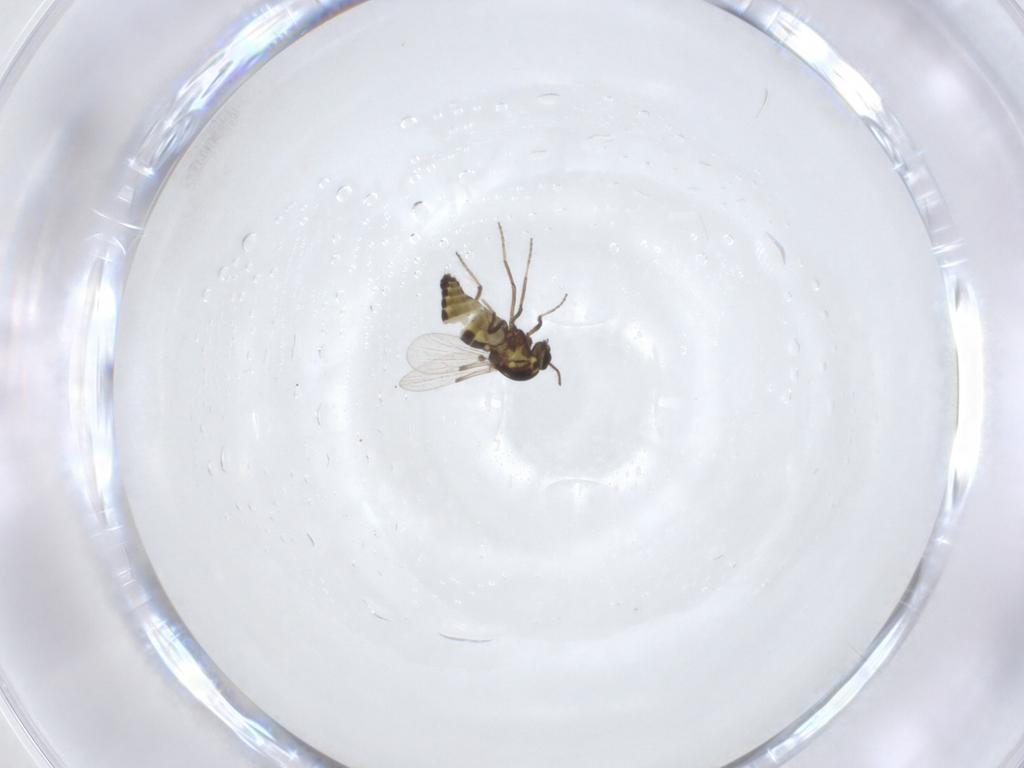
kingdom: Animalia
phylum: Arthropoda
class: Insecta
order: Diptera
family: Ceratopogonidae
